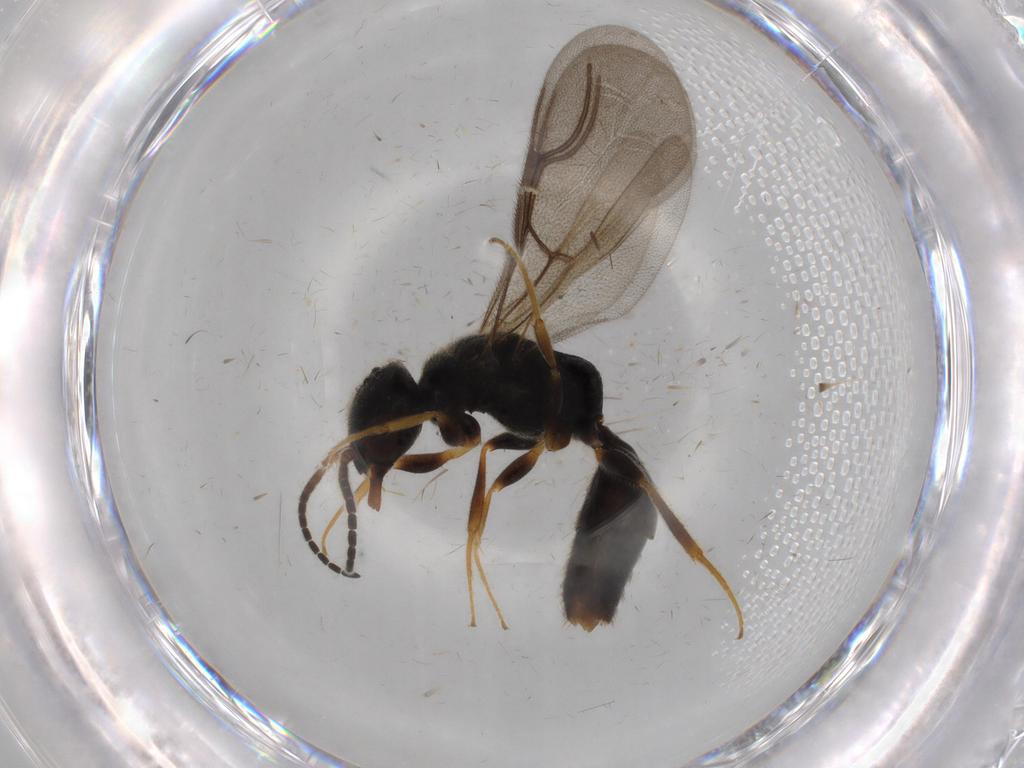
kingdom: Animalia
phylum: Arthropoda
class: Insecta
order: Hymenoptera
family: Bethylidae
